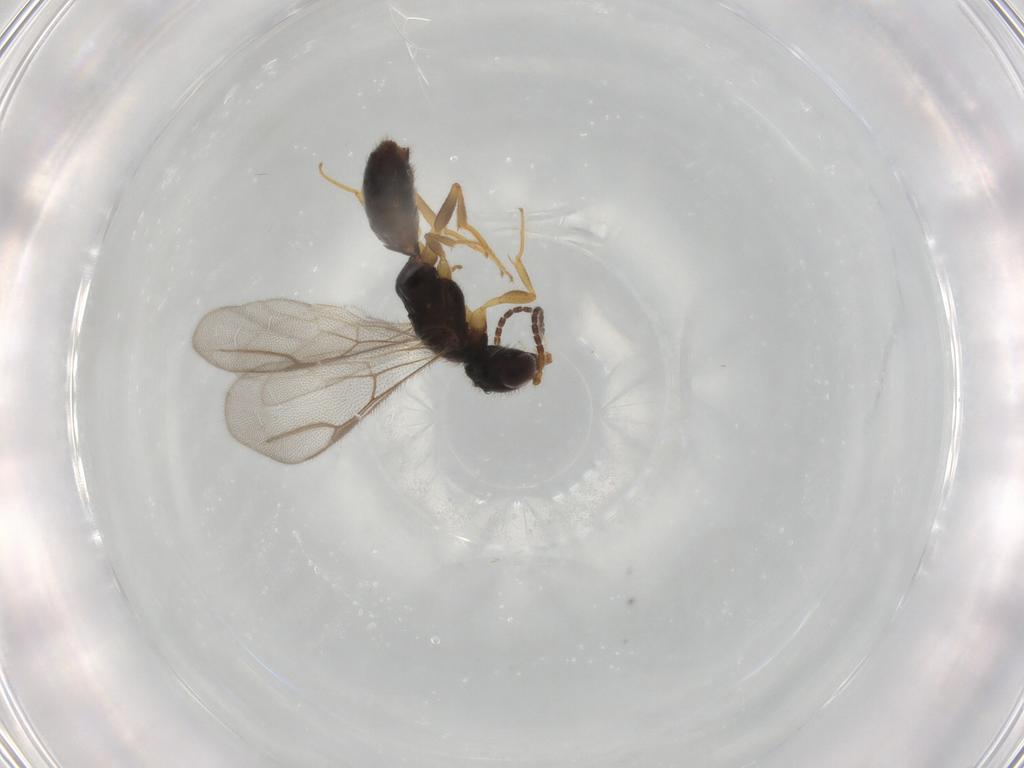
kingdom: Animalia
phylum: Arthropoda
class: Insecta
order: Hymenoptera
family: Bethylidae
